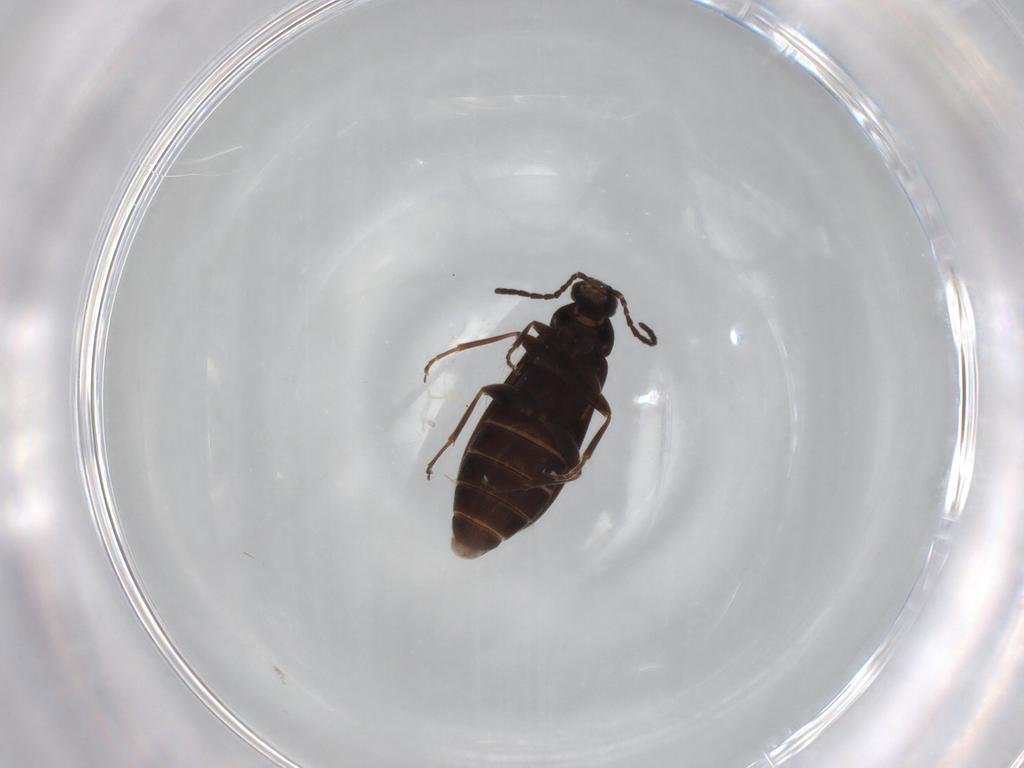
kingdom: Animalia
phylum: Arthropoda
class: Insecta
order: Coleoptera
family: Scraptiidae
